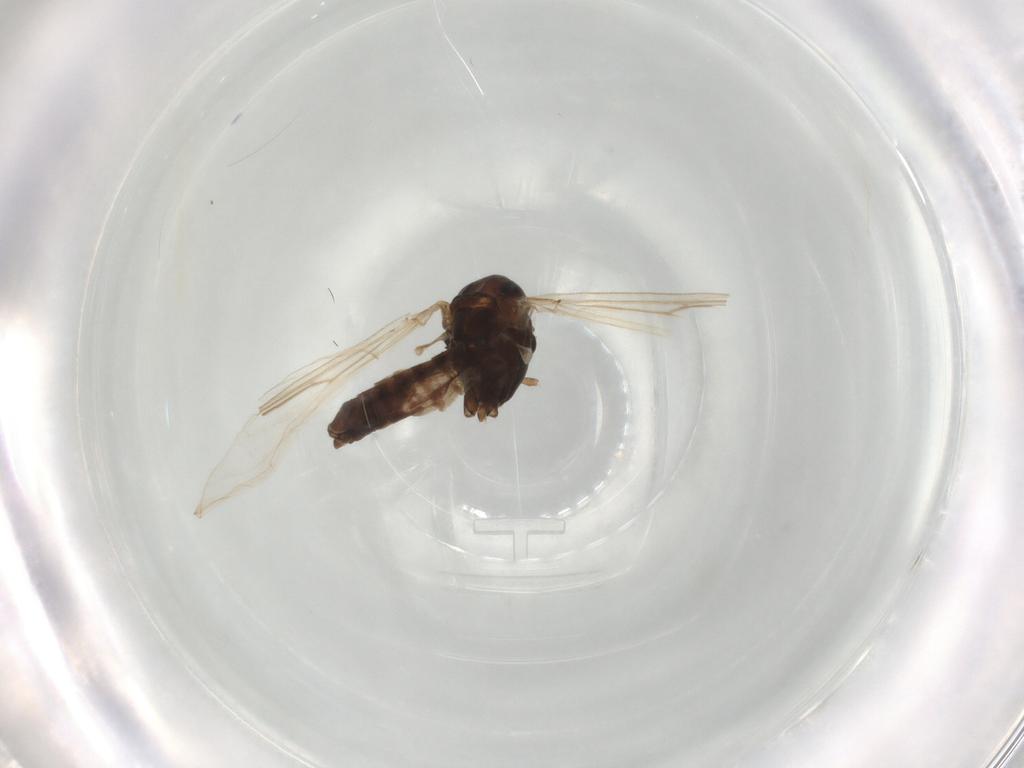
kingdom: Animalia
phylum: Arthropoda
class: Insecta
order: Diptera
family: Chironomidae
